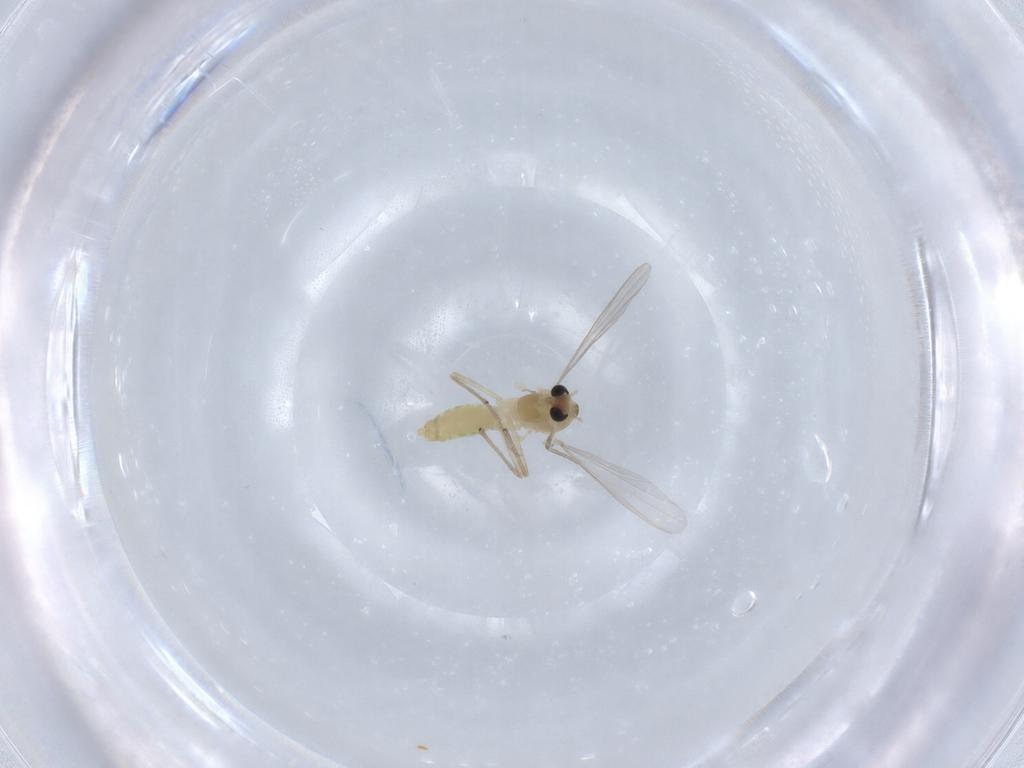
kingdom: Animalia
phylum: Arthropoda
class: Insecta
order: Diptera
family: Chironomidae
